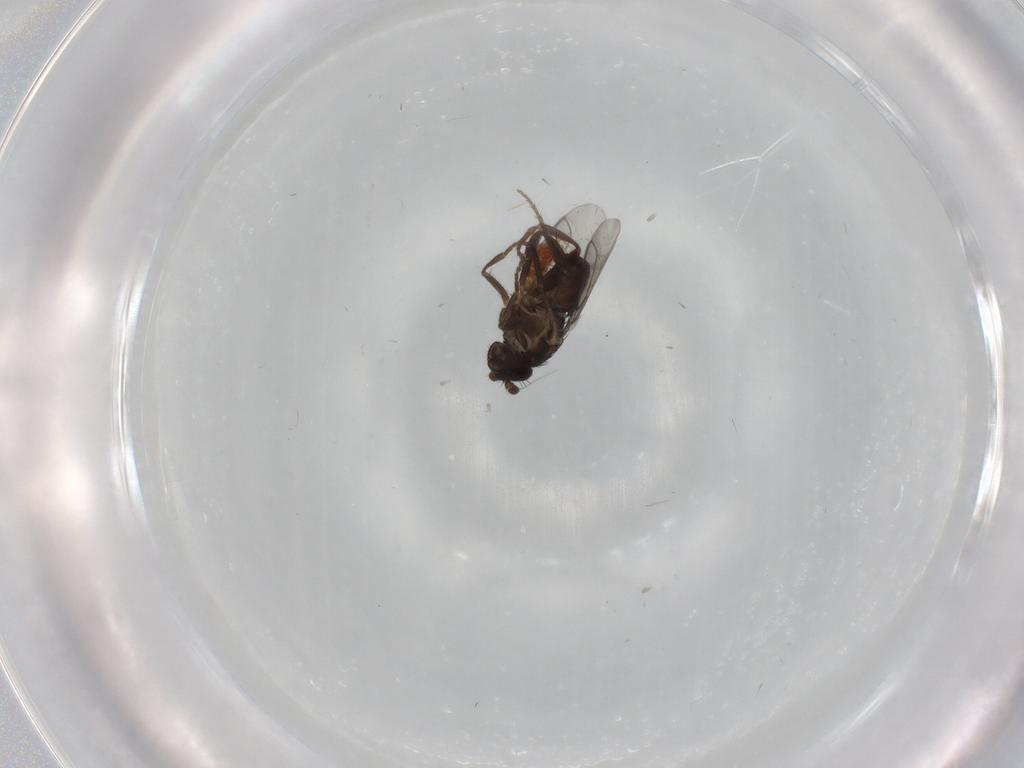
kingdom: Animalia
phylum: Arthropoda
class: Insecta
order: Diptera
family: Sphaeroceridae
